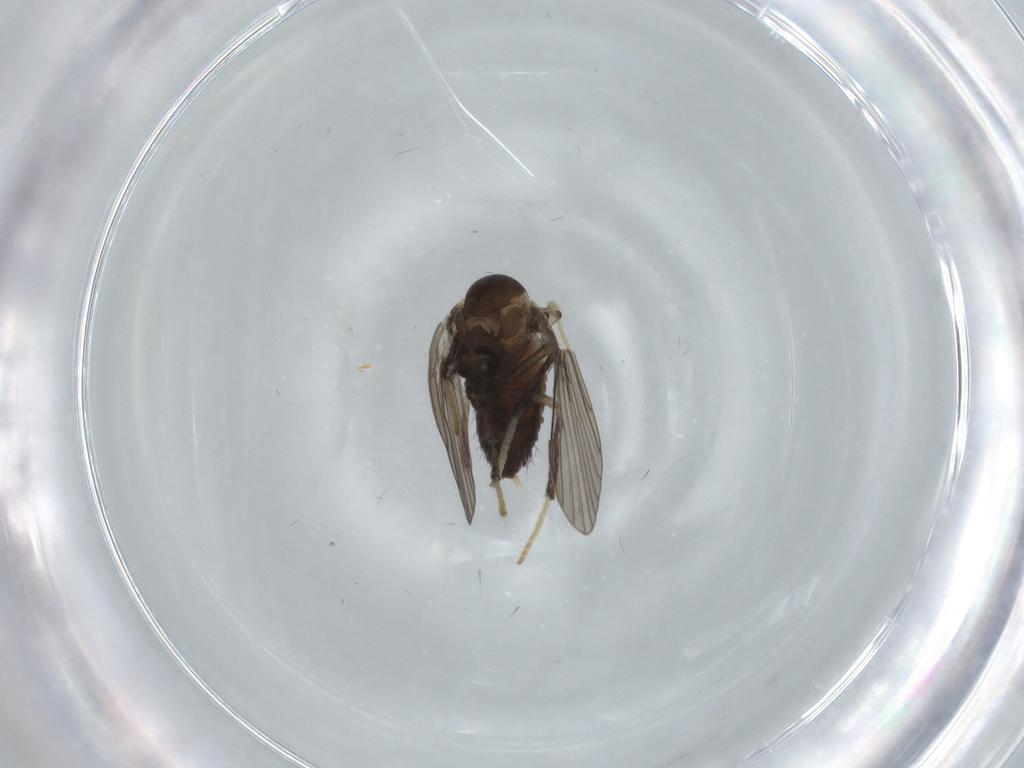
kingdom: Animalia
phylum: Arthropoda
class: Insecta
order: Diptera
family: Psychodidae
